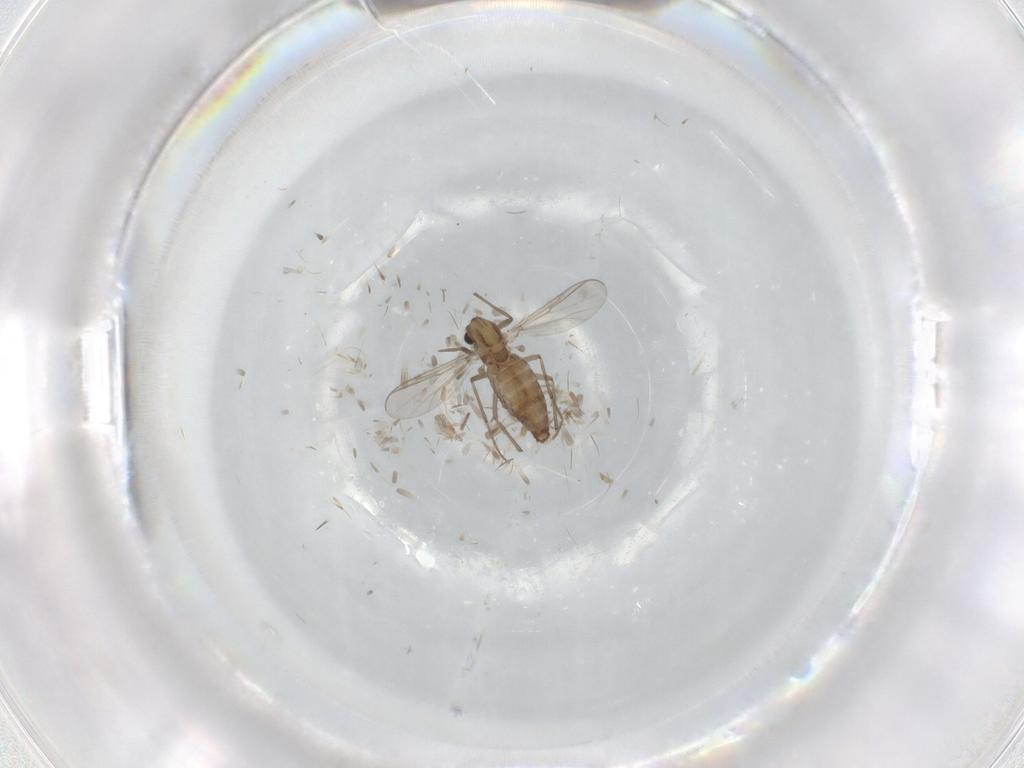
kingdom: Animalia
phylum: Arthropoda
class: Insecta
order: Diptera
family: Chironomidae
